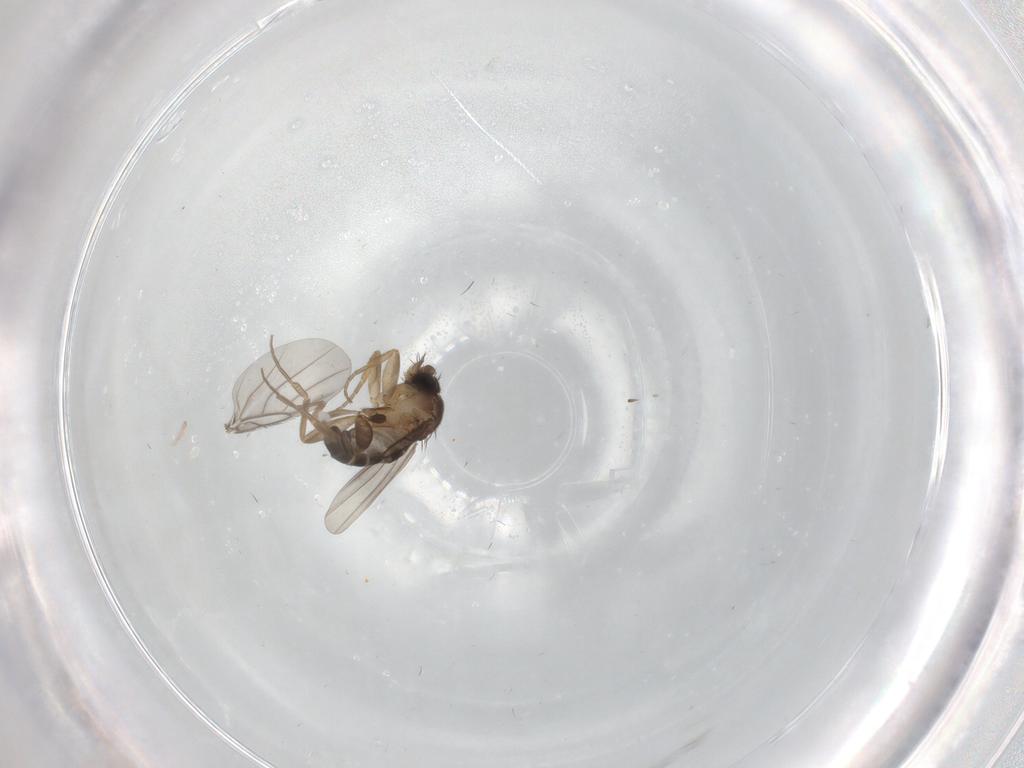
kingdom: Animalia
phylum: Arthropoda
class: Insecta
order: Diptera
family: Phoridae
